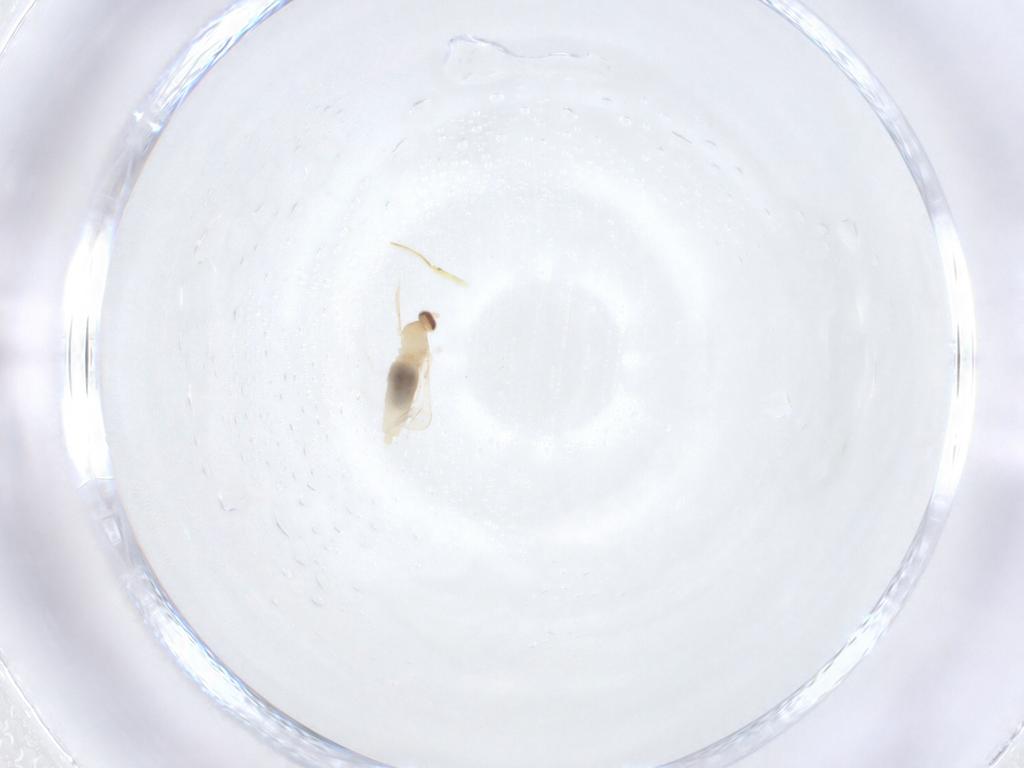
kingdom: Animalia
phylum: Arthropoda
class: Insecta
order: Diptera
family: Cecidomyiidae
